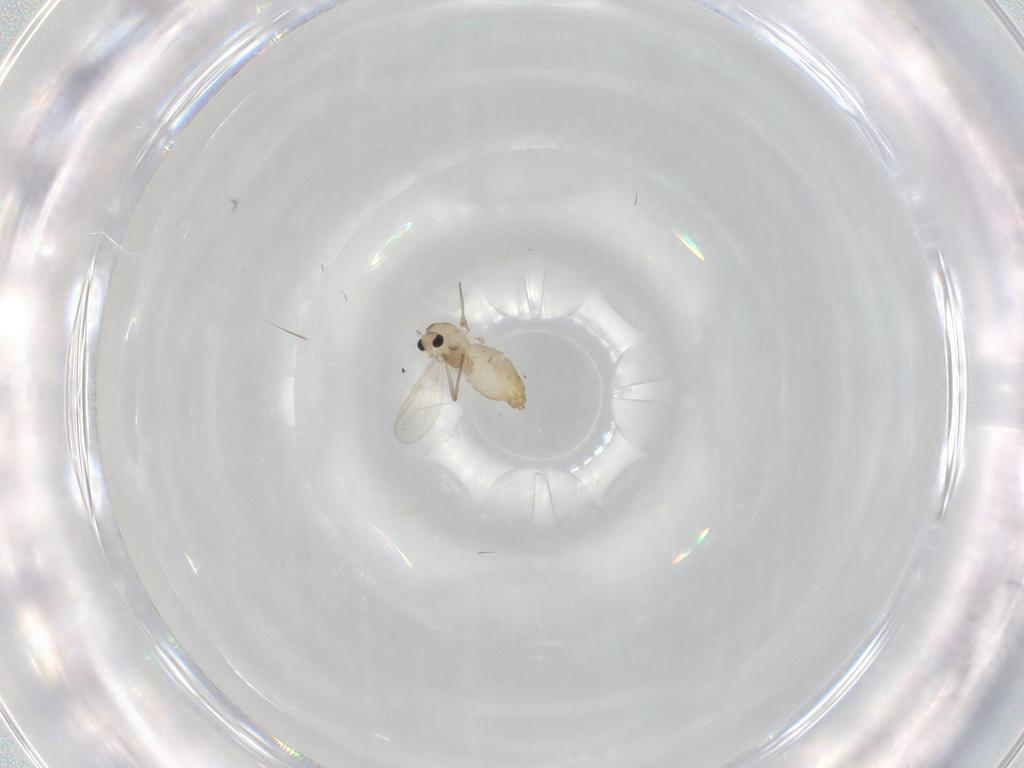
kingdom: Animalia
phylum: Arthropoda
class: Insecta
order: Diptera
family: Chironomidae
